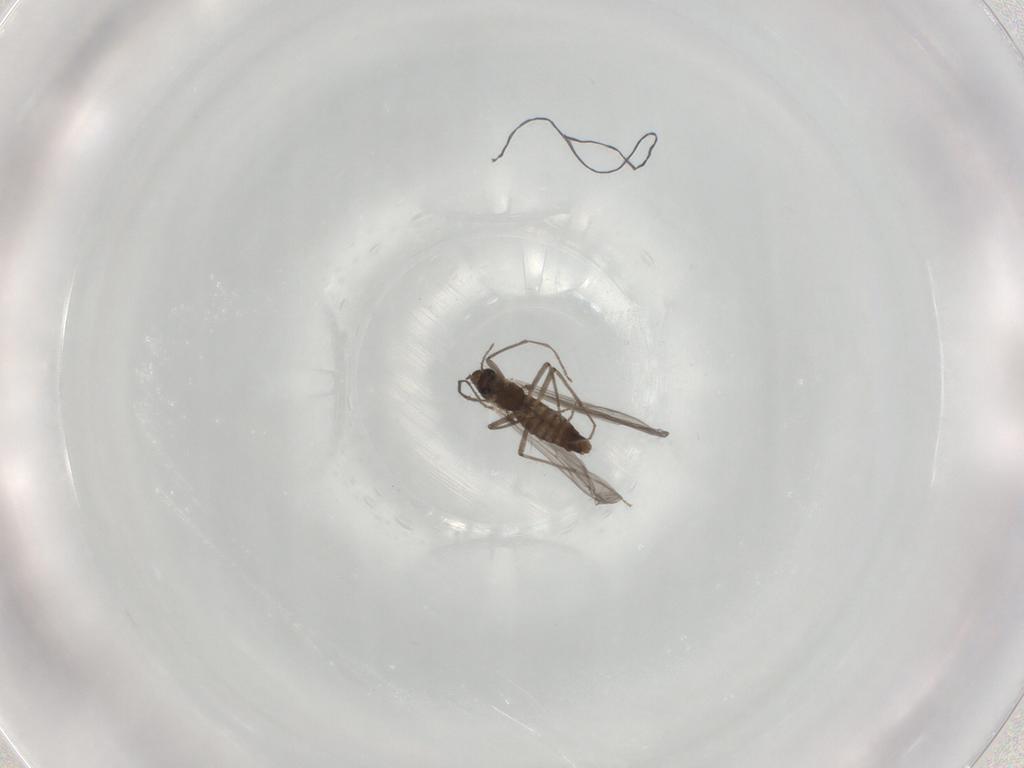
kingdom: Animalia
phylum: Arthropoda
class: Insecta
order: Diptera
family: Chironomidae
